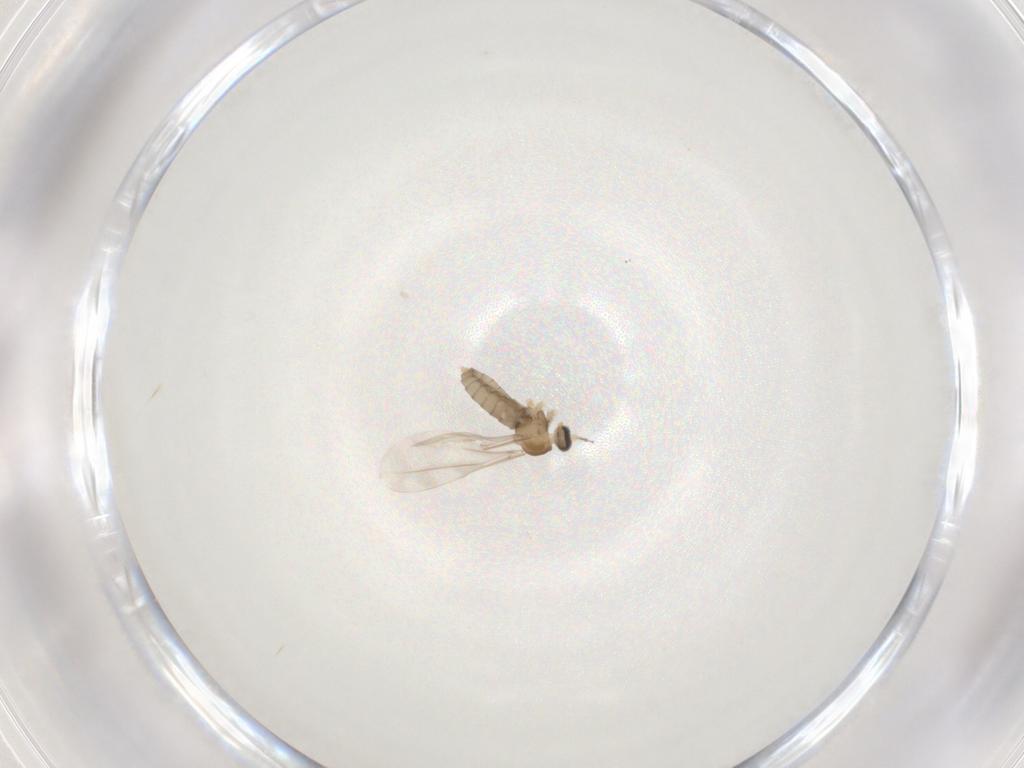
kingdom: Animalia
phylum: Arthropoda
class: Insecta
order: Diptera
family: Cecidomyiidae
